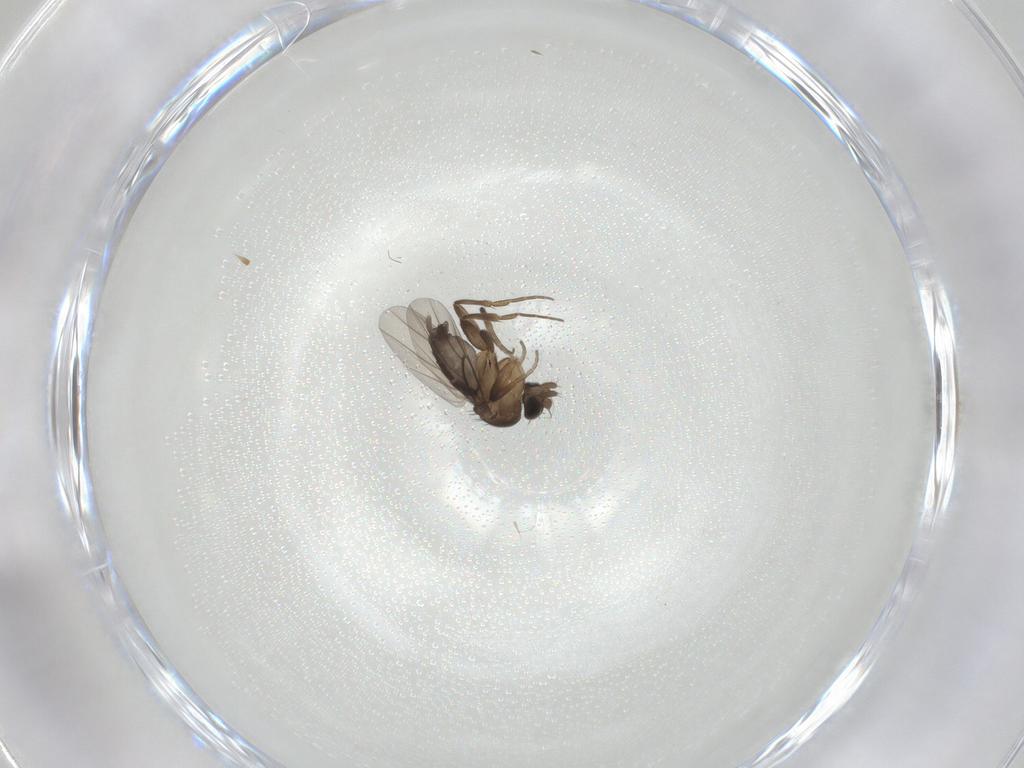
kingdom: Animalia
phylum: Arthropoda
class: Insecta
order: Diptera
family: Phoridae
